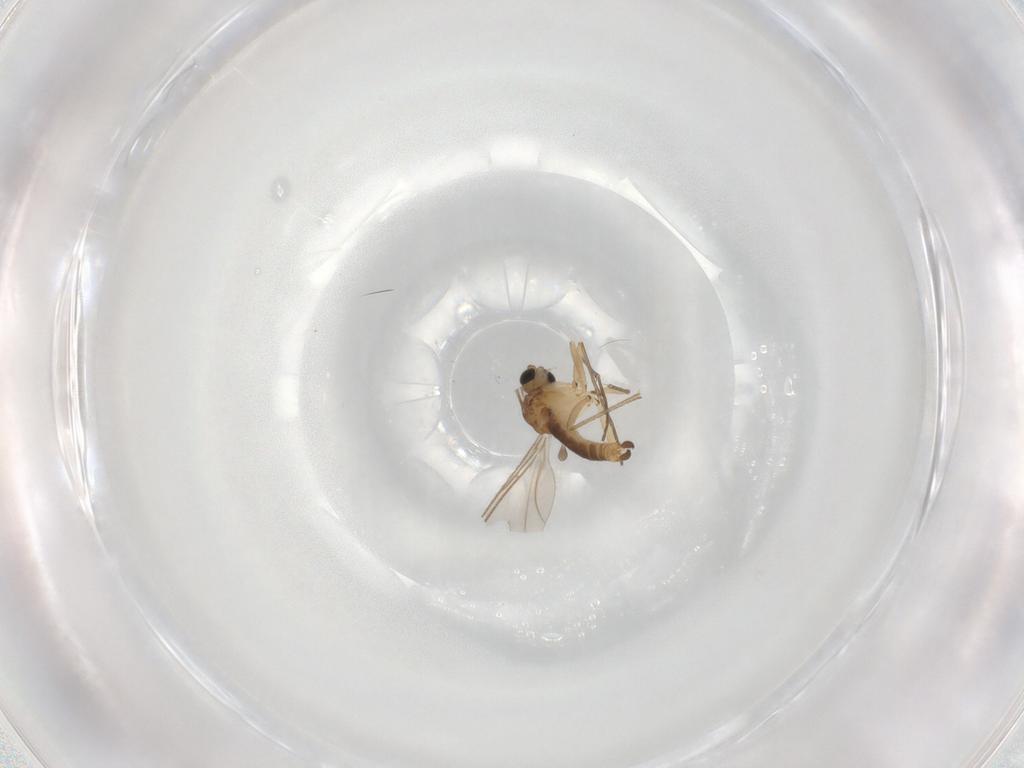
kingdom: Animalia
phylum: Arthropoda
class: Insecta
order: Diptera
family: Sciaridae
